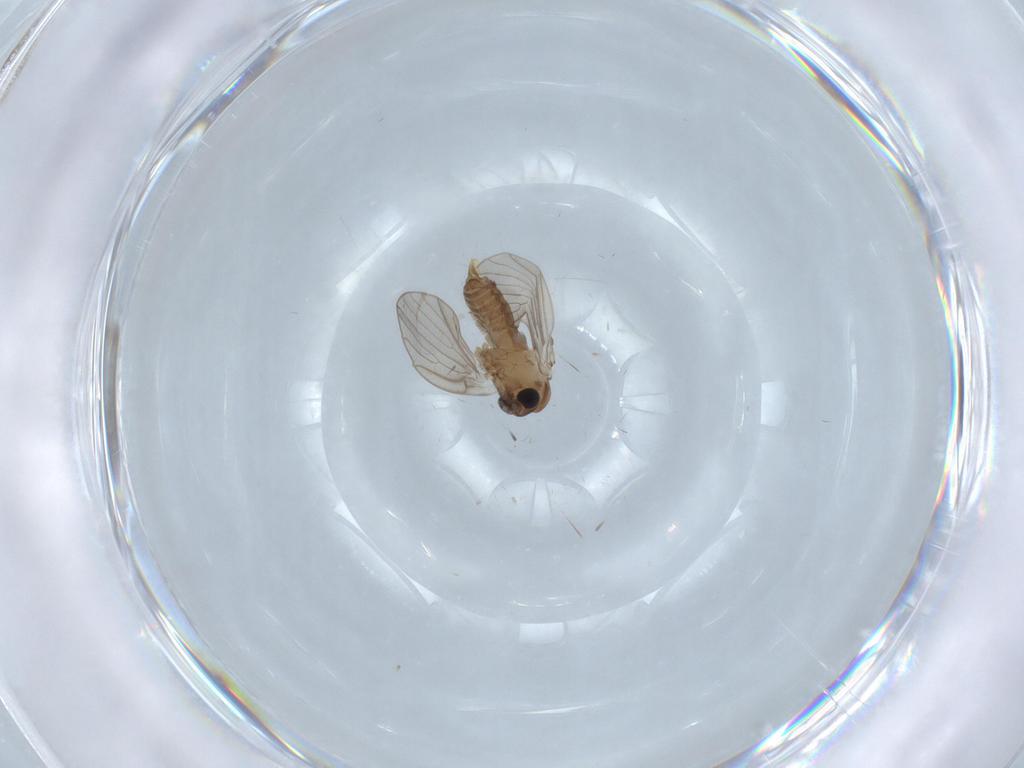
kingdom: Animalia
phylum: Arthropoda
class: Insecta
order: Diptera
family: Psychodidae
